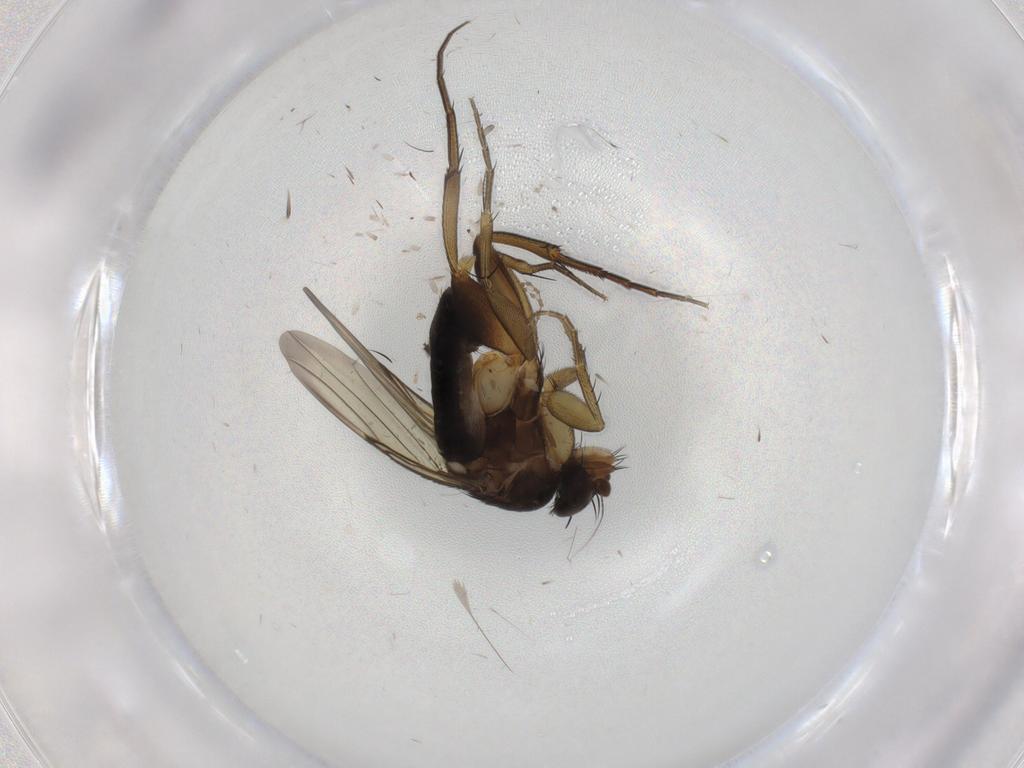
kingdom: Animalia
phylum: Arthropoda
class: Insecta
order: Diptera
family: Phoridae
